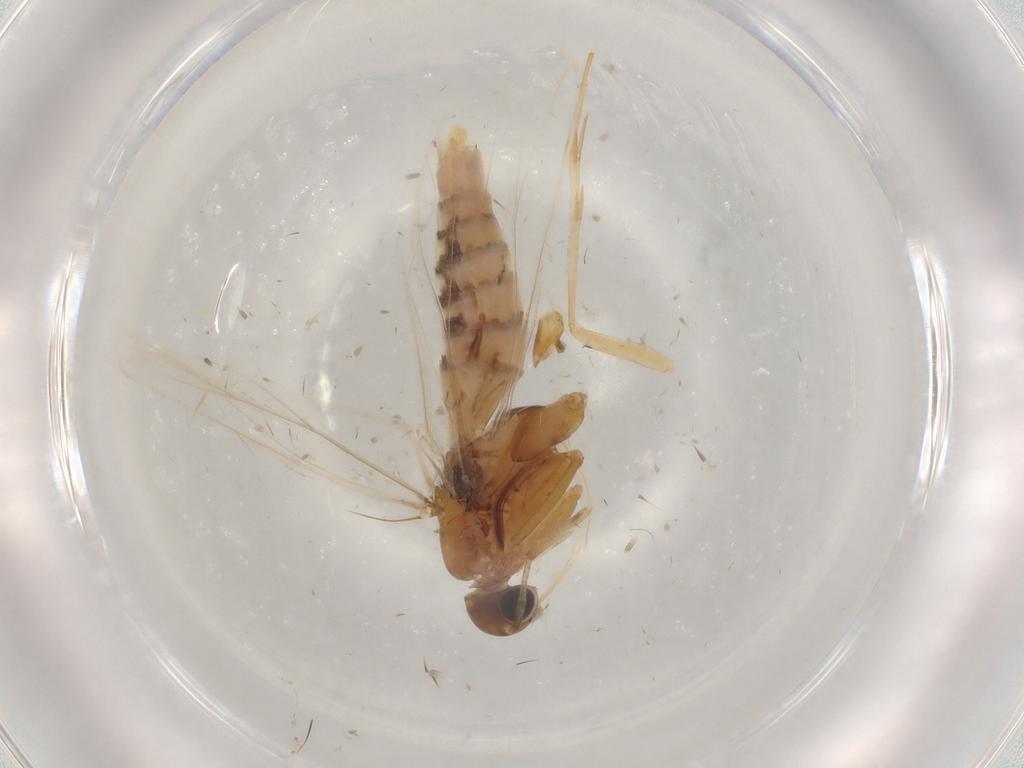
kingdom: Animalia
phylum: Arthropoda
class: Insecta
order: Lepidoptera
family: Gelechiidae
